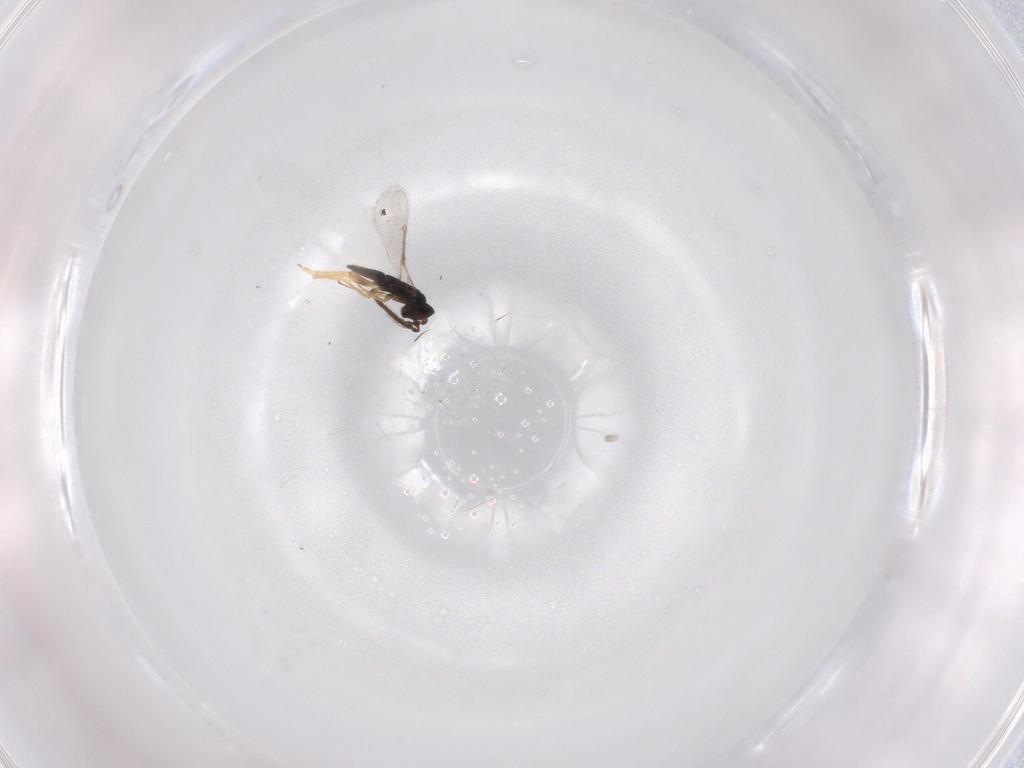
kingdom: Animalia
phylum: Arthropoda
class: Insecta
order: Hymenoptera
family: Eulophidae
